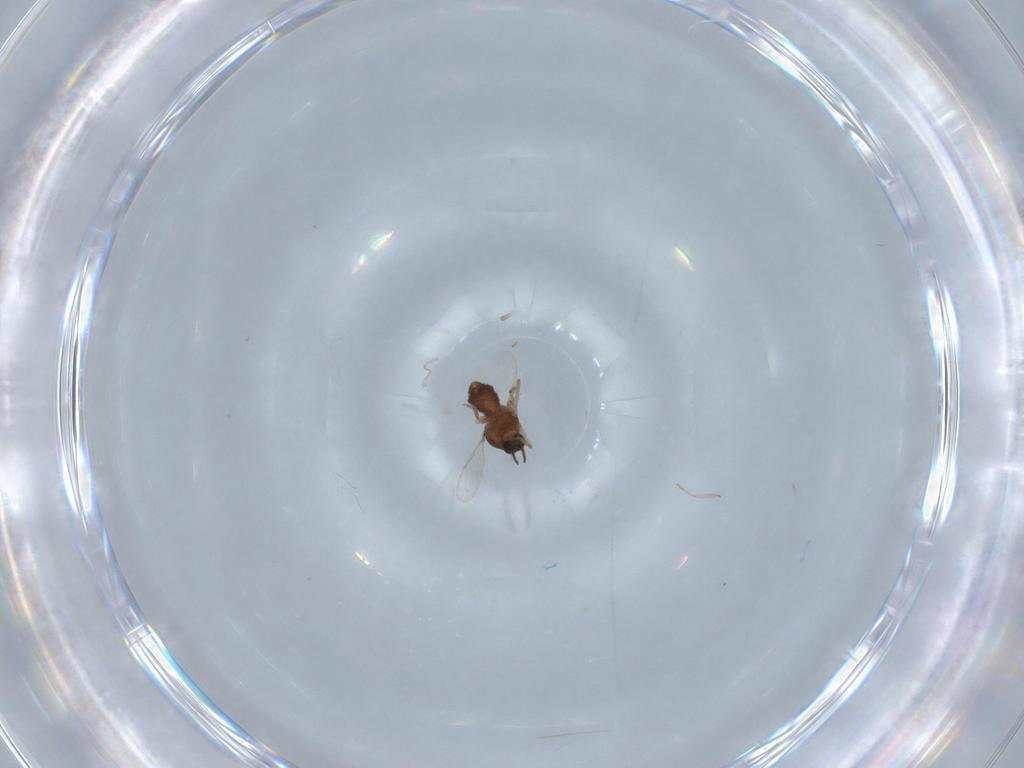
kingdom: Animalia
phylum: Arthropoda
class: Insecta
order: Diptera
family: Ceratopogonidae
